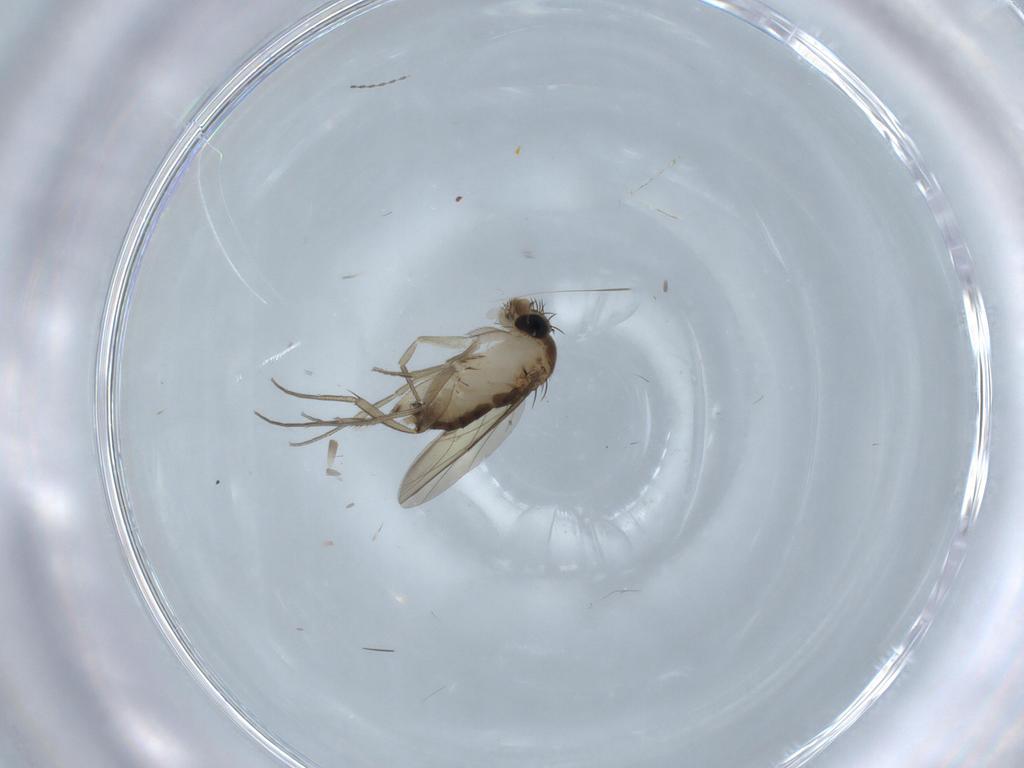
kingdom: Animalia
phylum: Arthropoda
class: Insecta
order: Diptera
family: Phoridae
